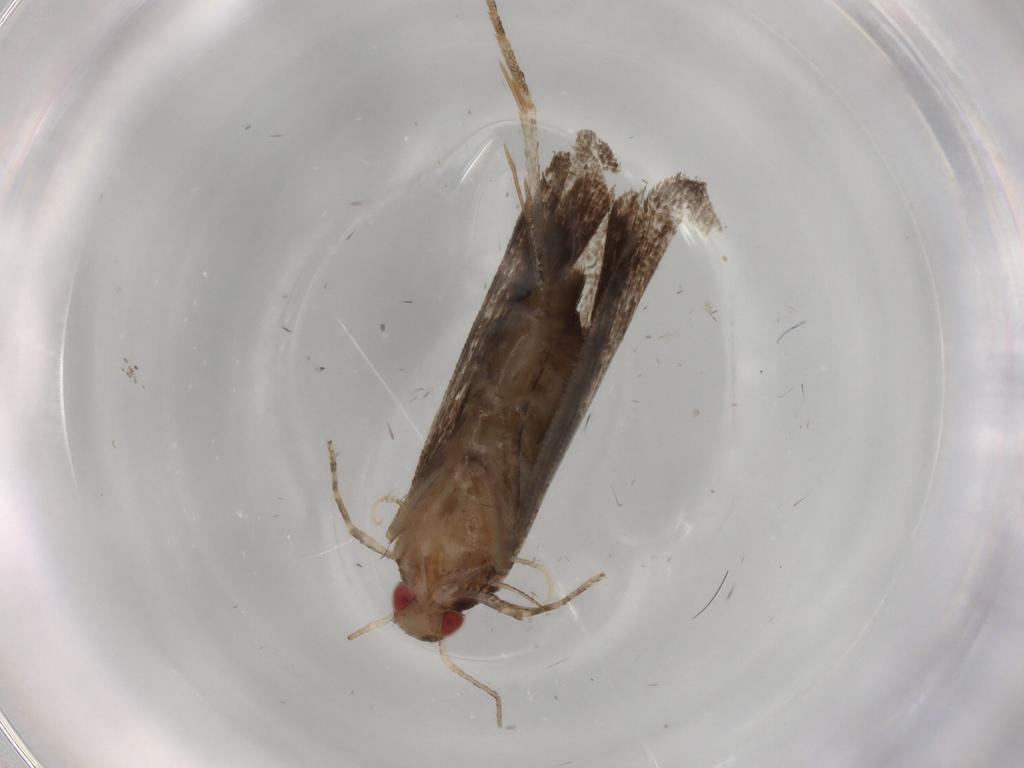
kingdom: Animalia
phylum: Arthropoda
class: Insecta
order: Lepidoptera
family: Gelechiidae
